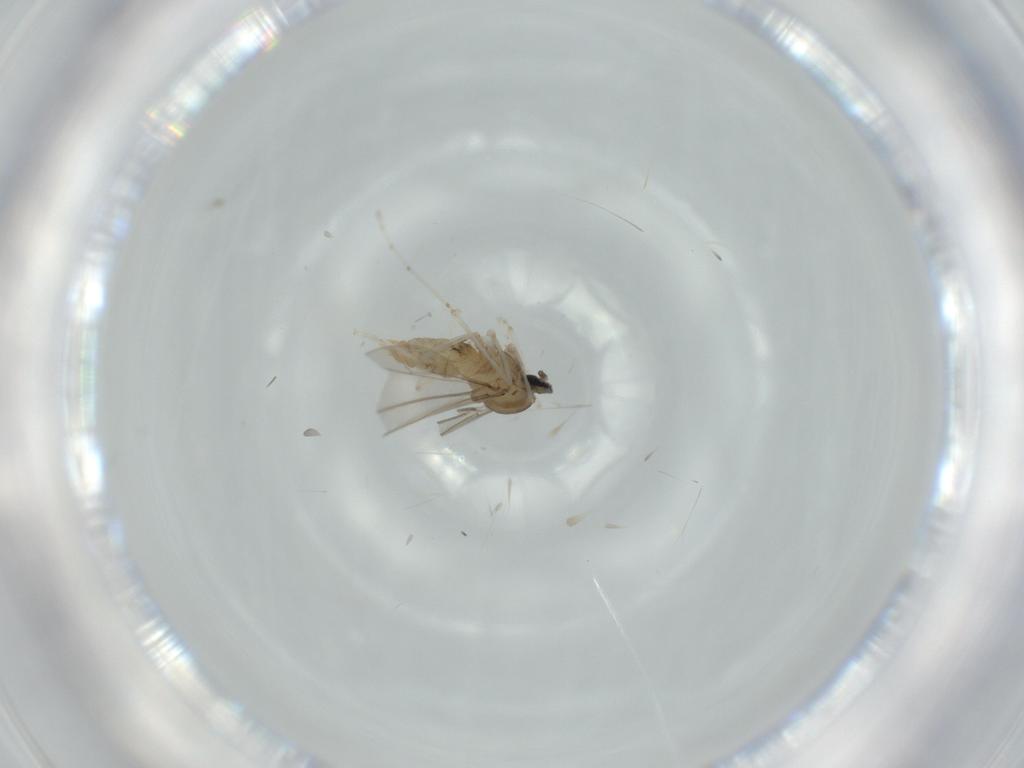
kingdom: Animalia
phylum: Arthropoda
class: Insecta
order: Diptera
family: Cecidomyiidae
